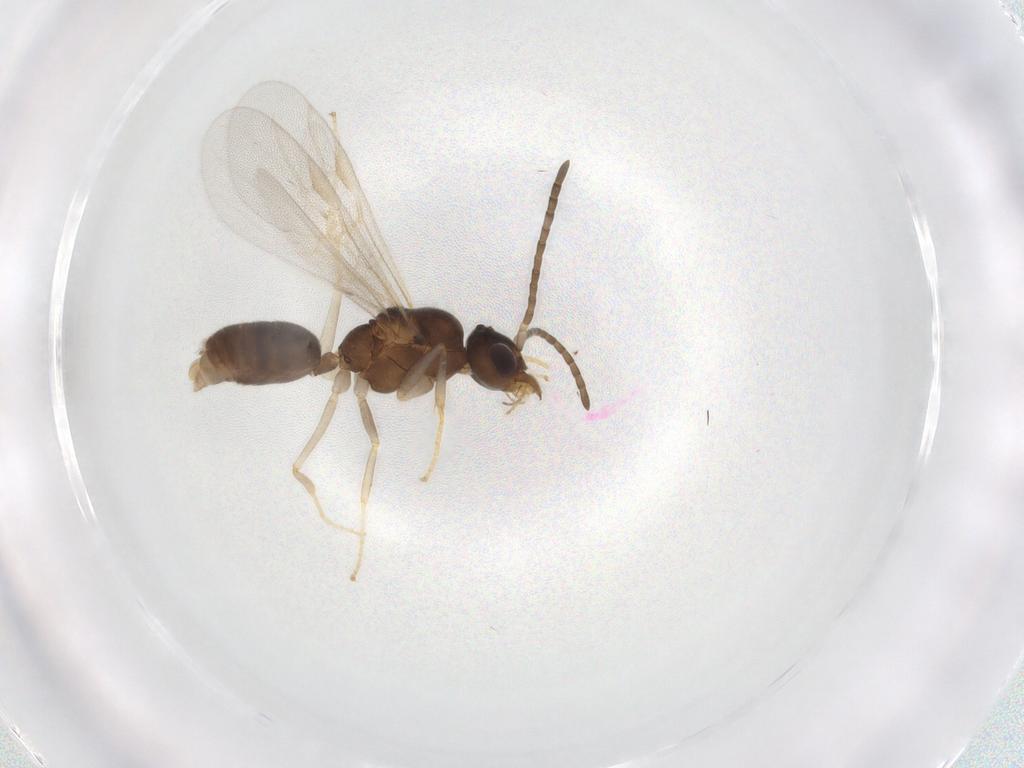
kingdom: Animalia
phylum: Arthropoda
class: Insecta
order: Hymenoptera
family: Formicidae
